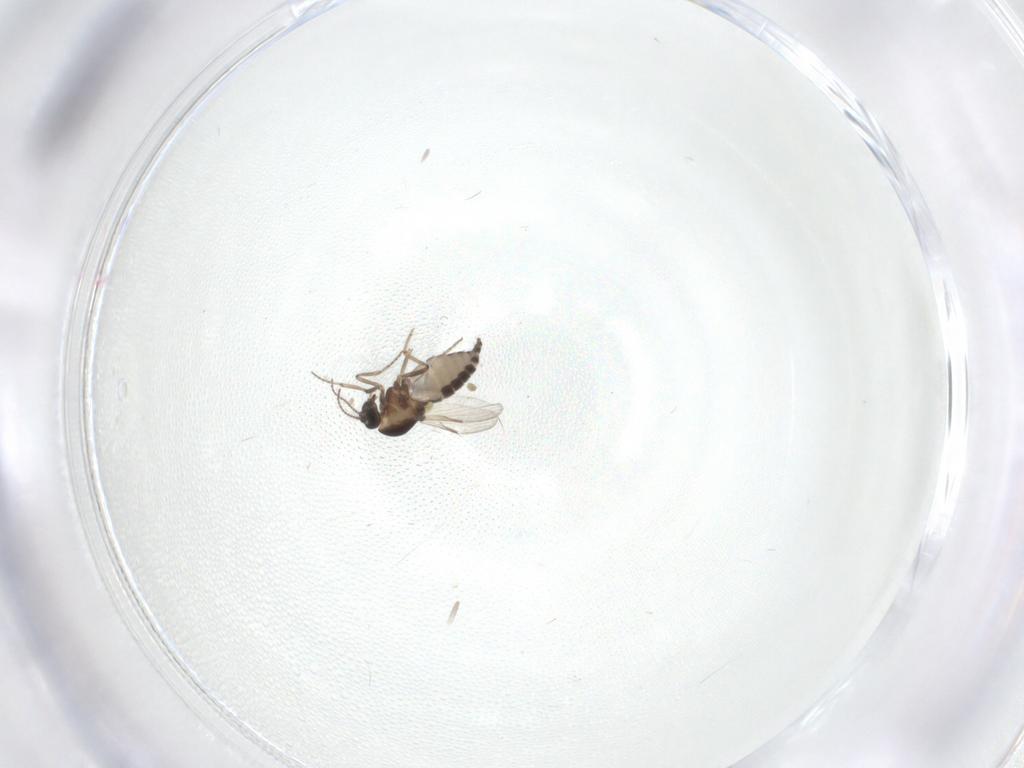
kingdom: Animalia
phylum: Arthropoda
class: Insecta
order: Diptera
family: Ceratopogonidae
